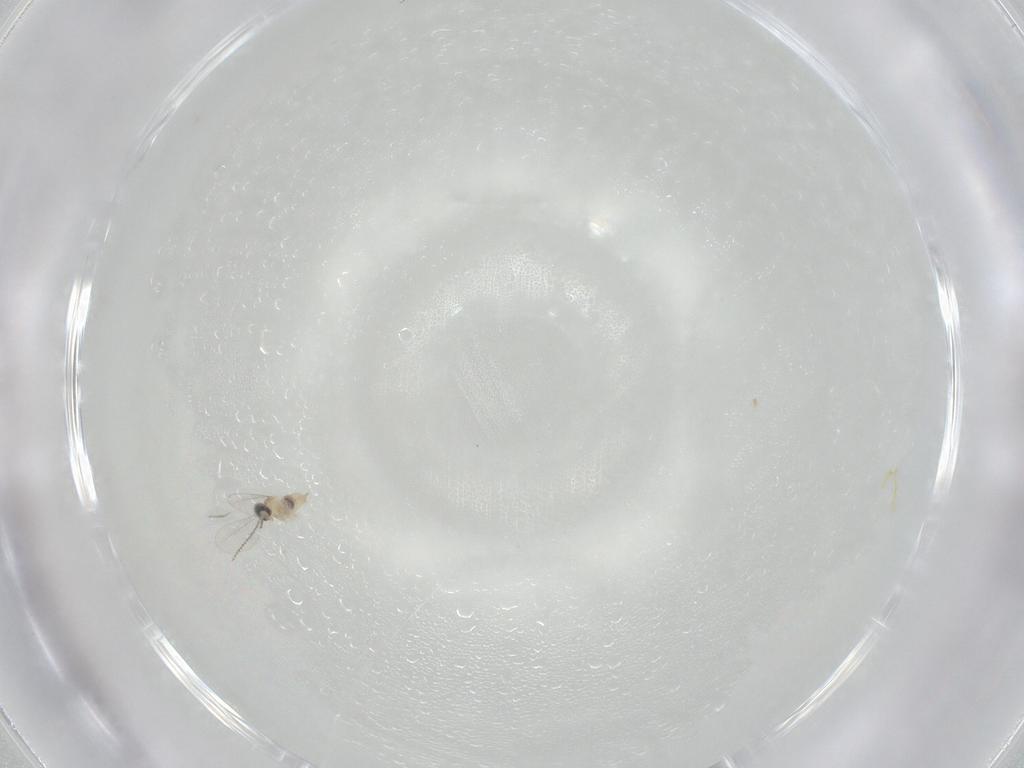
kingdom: Animalia
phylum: Arthropoda
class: Insecta
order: Diptera
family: Cecidomyiidae
